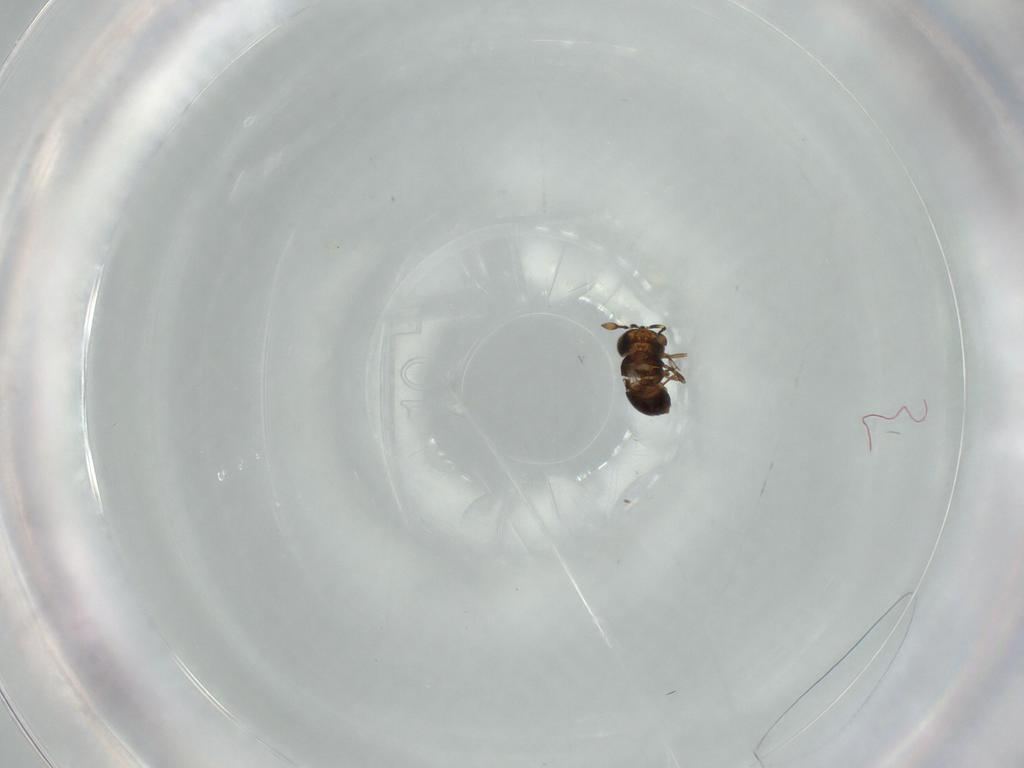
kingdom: Animalia
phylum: Arthropoda
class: Insecta
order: Hymenoptera
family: Scelionidae
